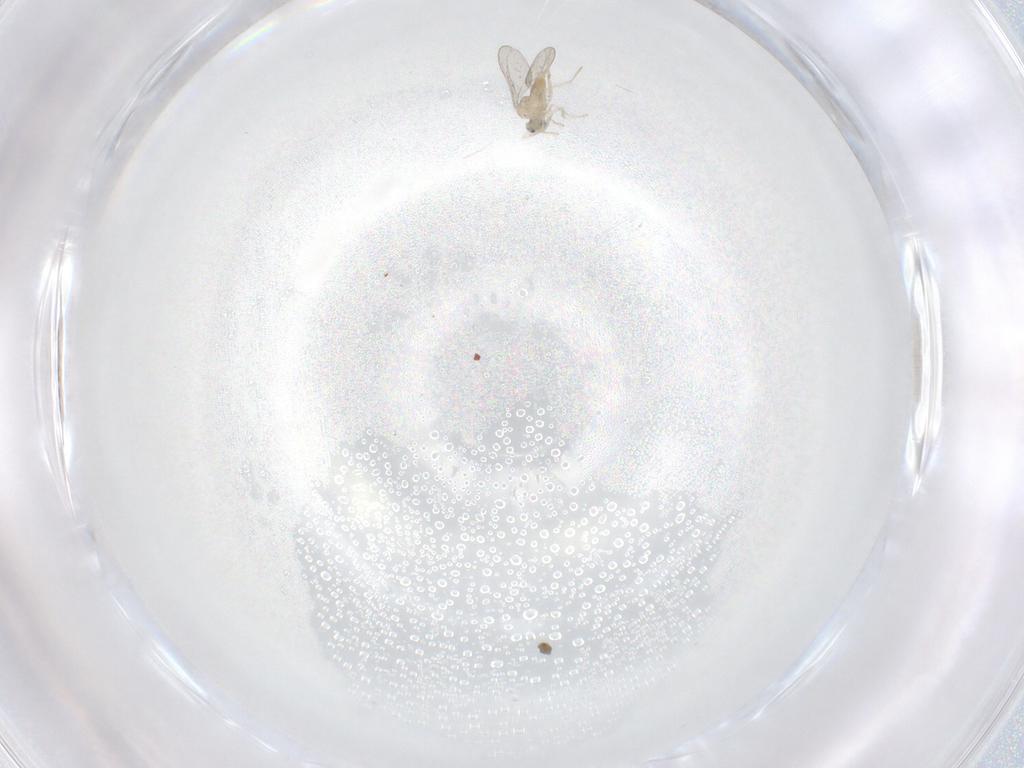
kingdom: Animalia
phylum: Arthropoda
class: Insecta
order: Diptera
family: Cecidomyiidae
